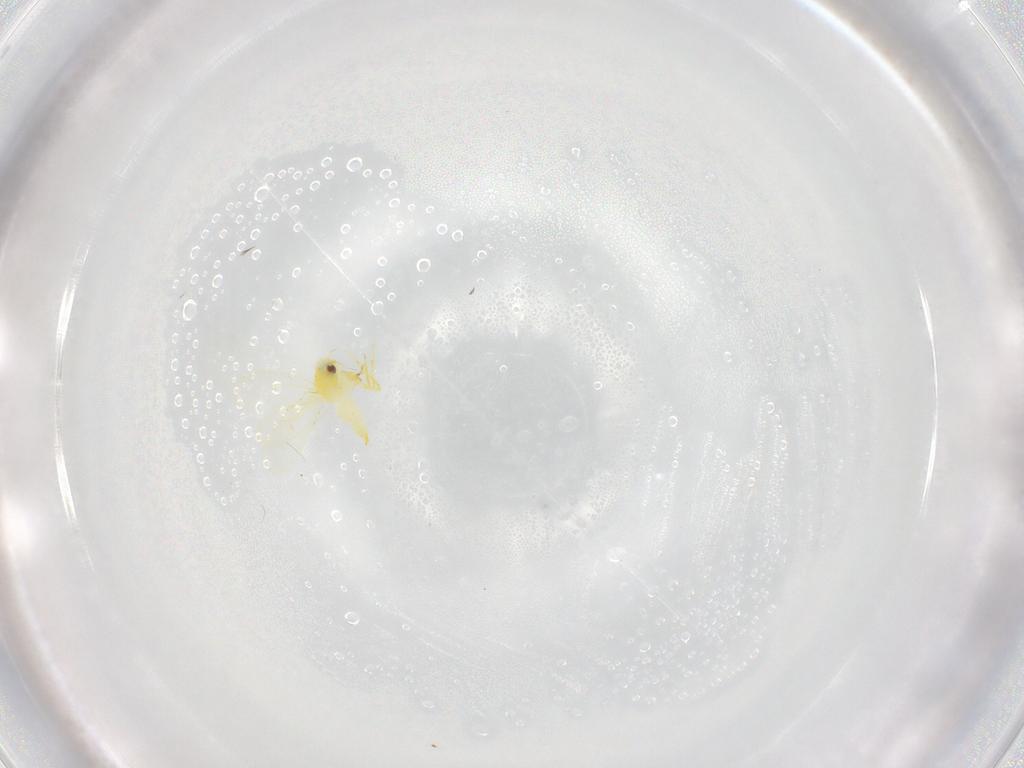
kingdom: Animalia
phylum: Arthropoda
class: Insecta
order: Hemiptera
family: Aleyrodidae
